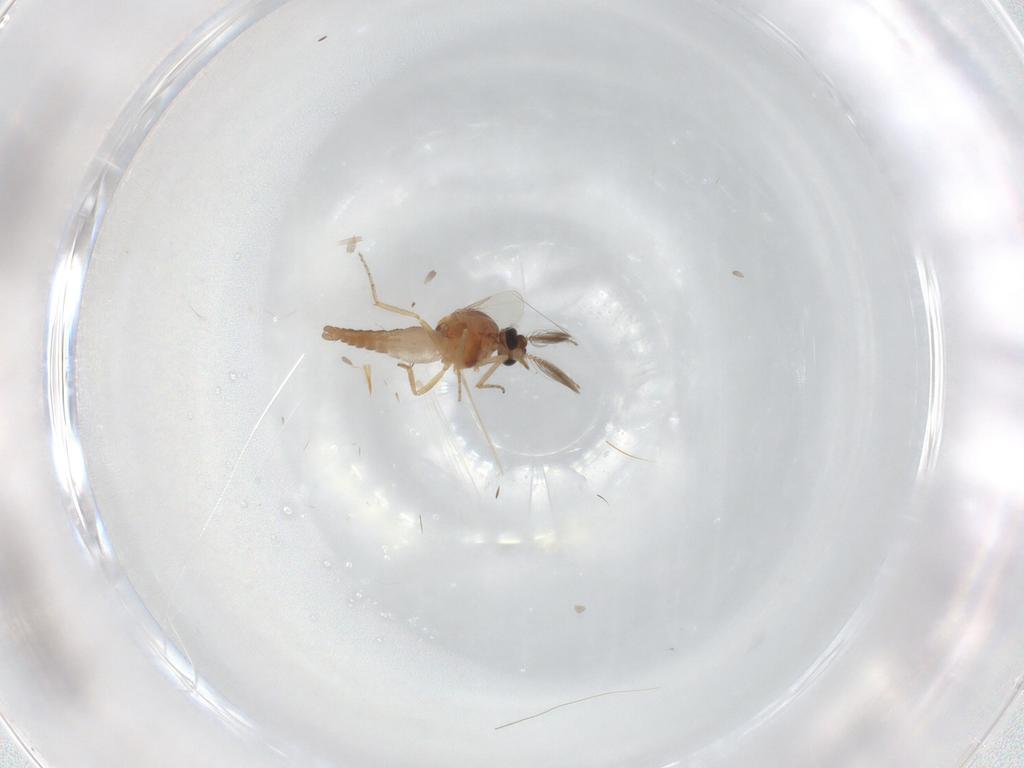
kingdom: Animalia
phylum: Arthropoda
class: Insecta
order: Diptera
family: Ceratopogonidae
